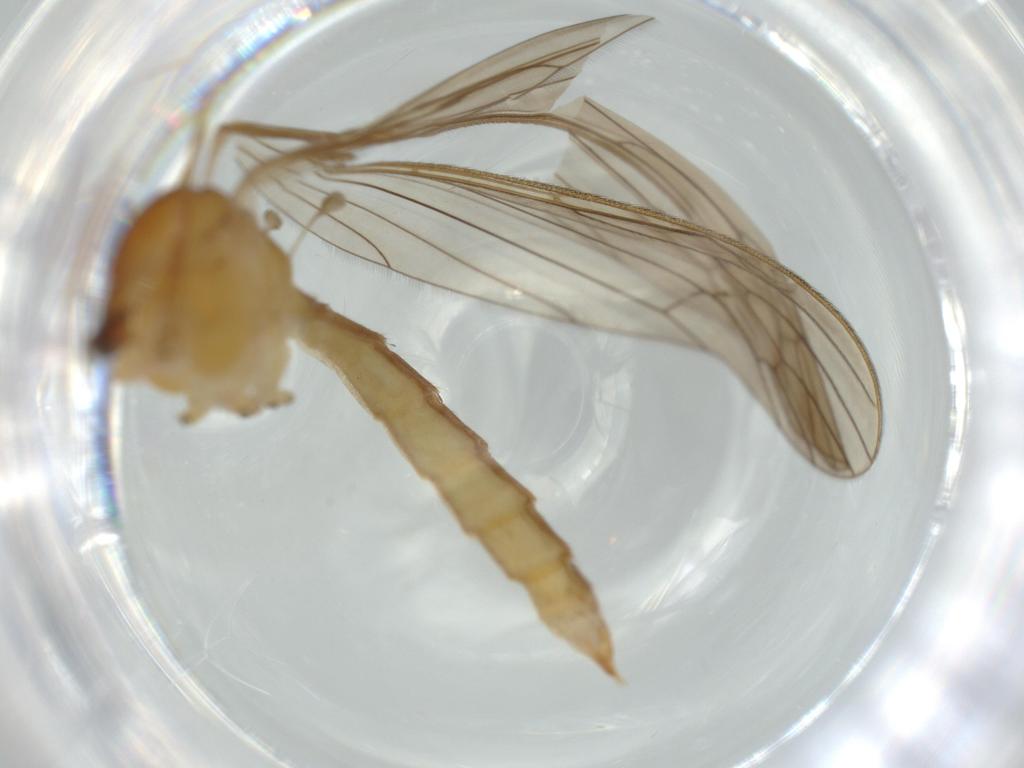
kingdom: Animalia
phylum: Arthropoda
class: Insecta
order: Diptera
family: Limoniidae
